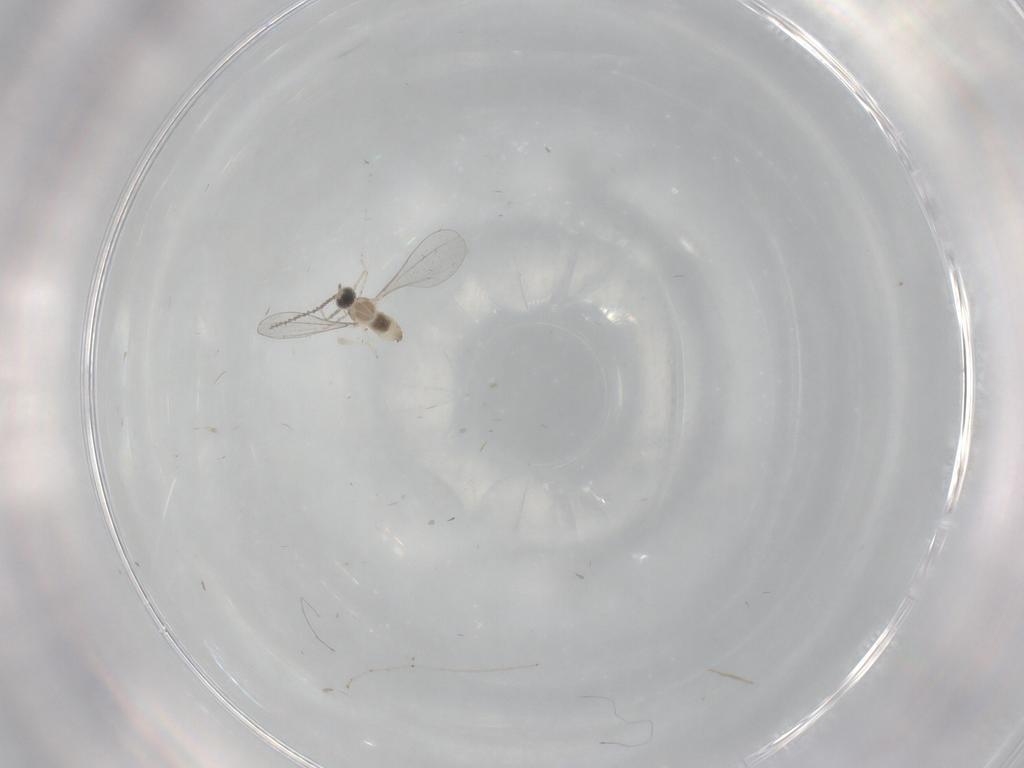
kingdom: Animalia
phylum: Arthropoda
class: Insecta
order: Diptera
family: Cecidomyiidae
